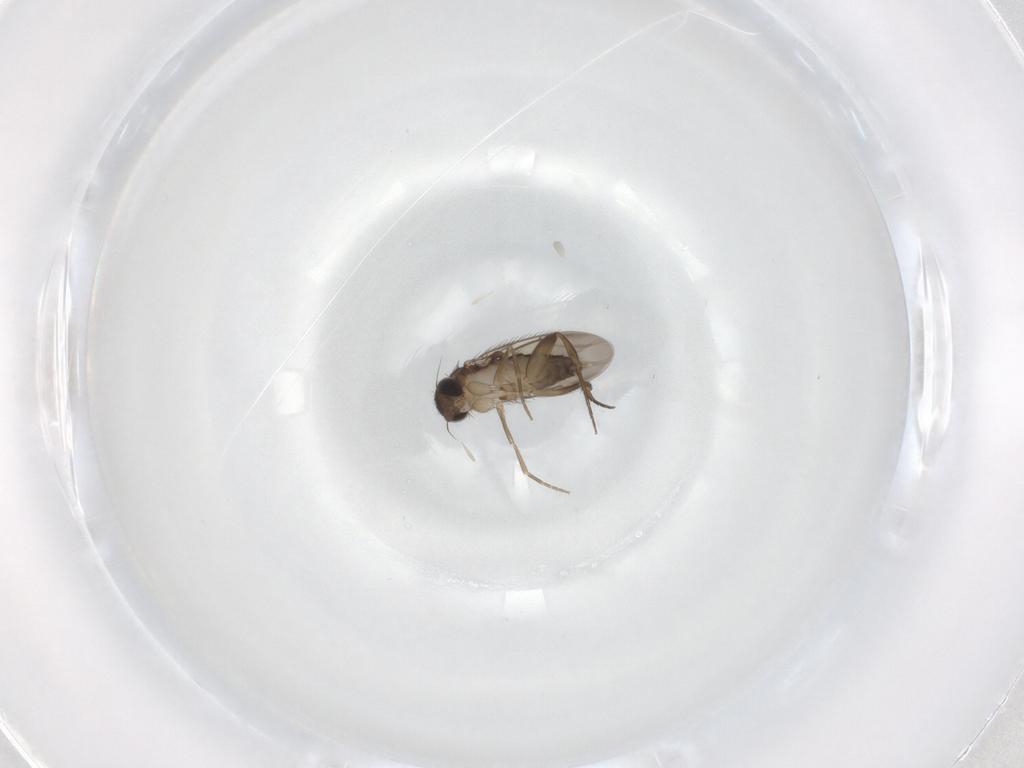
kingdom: Animalia
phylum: Arthropoda
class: Insecta
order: Diptera
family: Phoridae
